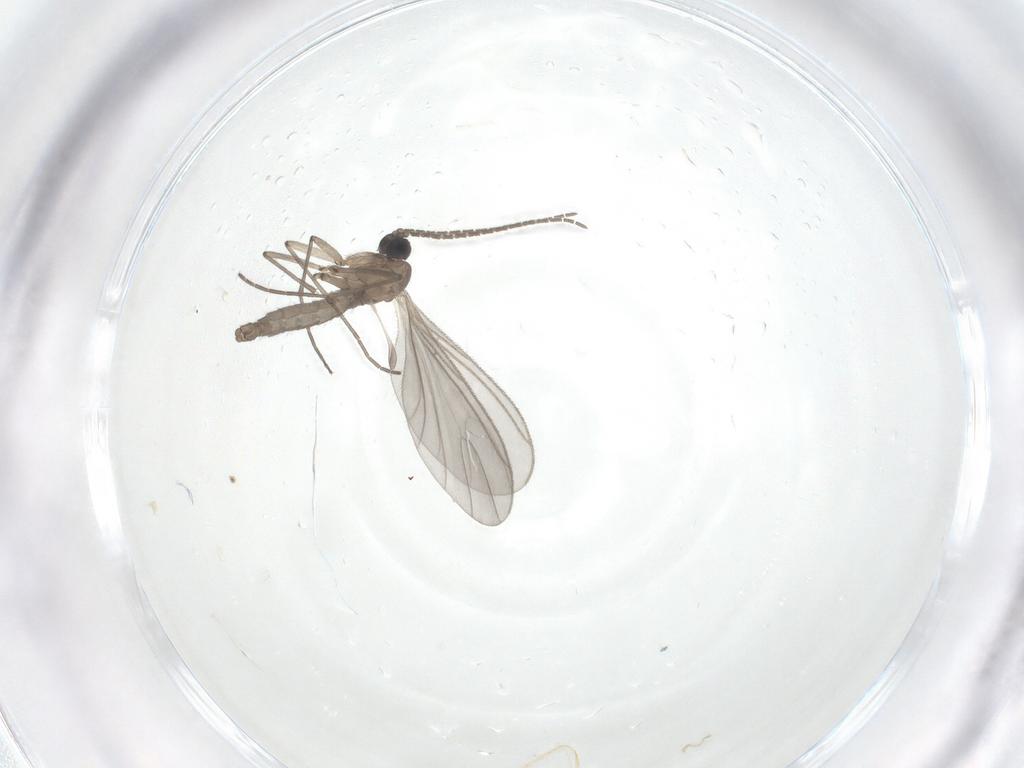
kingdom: Animalia
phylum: Arthropoda
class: Insecta
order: Diptera
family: Sciaridae
